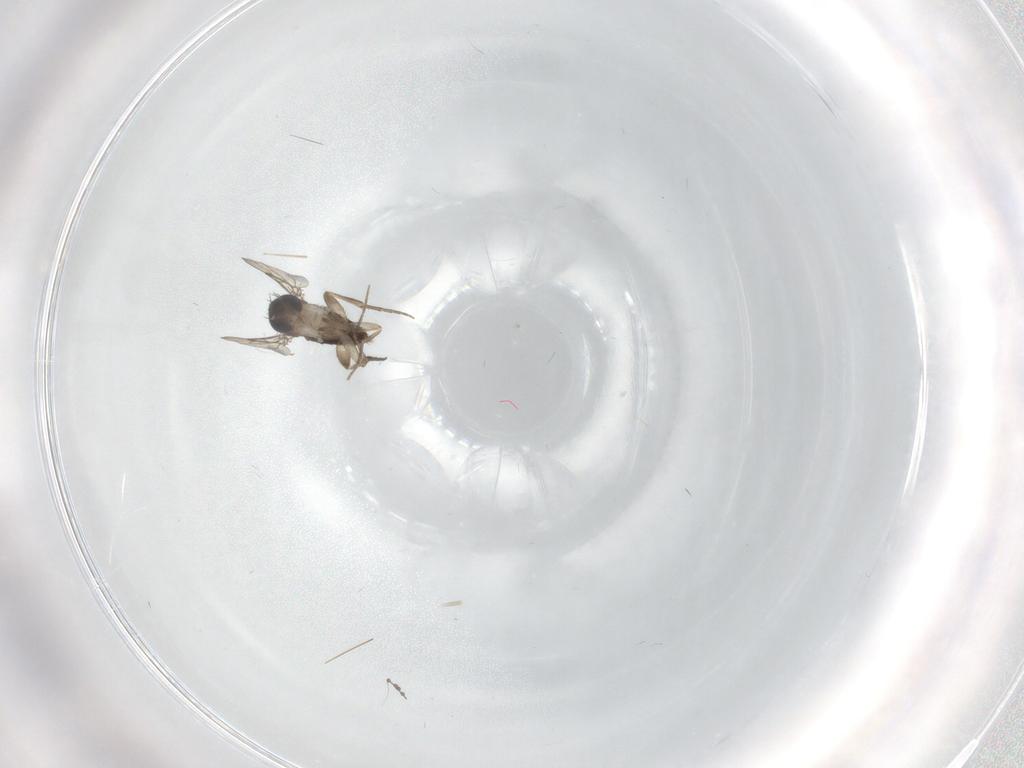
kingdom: Animalia
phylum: Arthropoda
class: Insecta
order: Diptera
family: Phoridae
